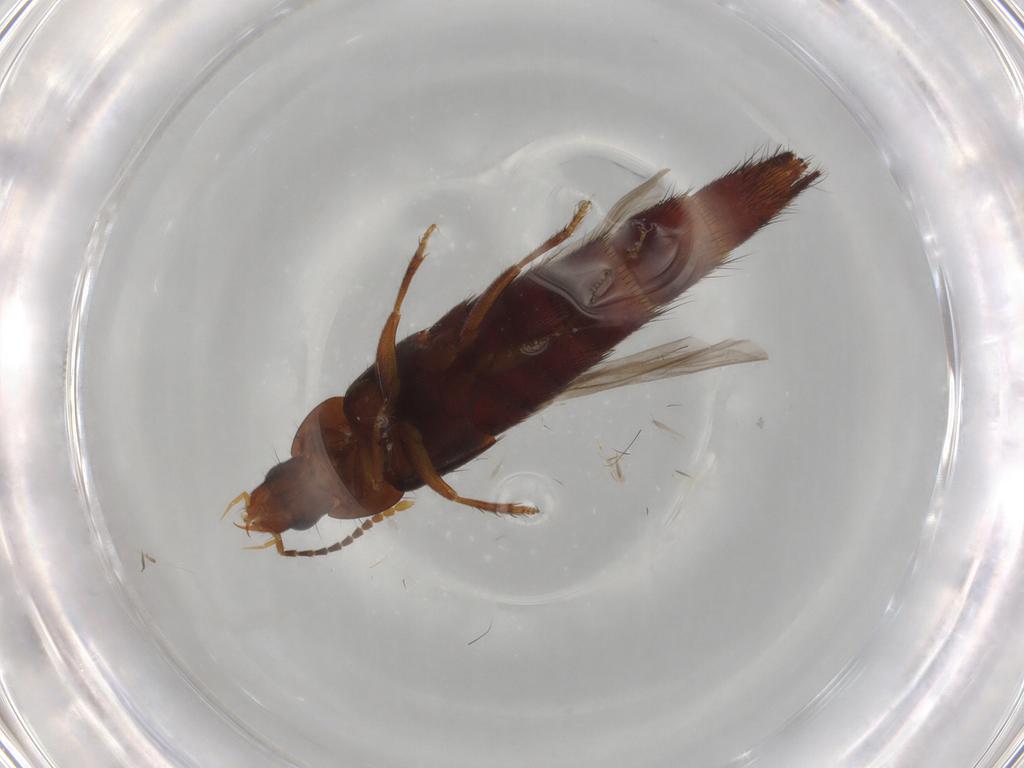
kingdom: Animalia
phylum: Arthropoda
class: Insecta
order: Coleoptera
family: Staphylinidae
